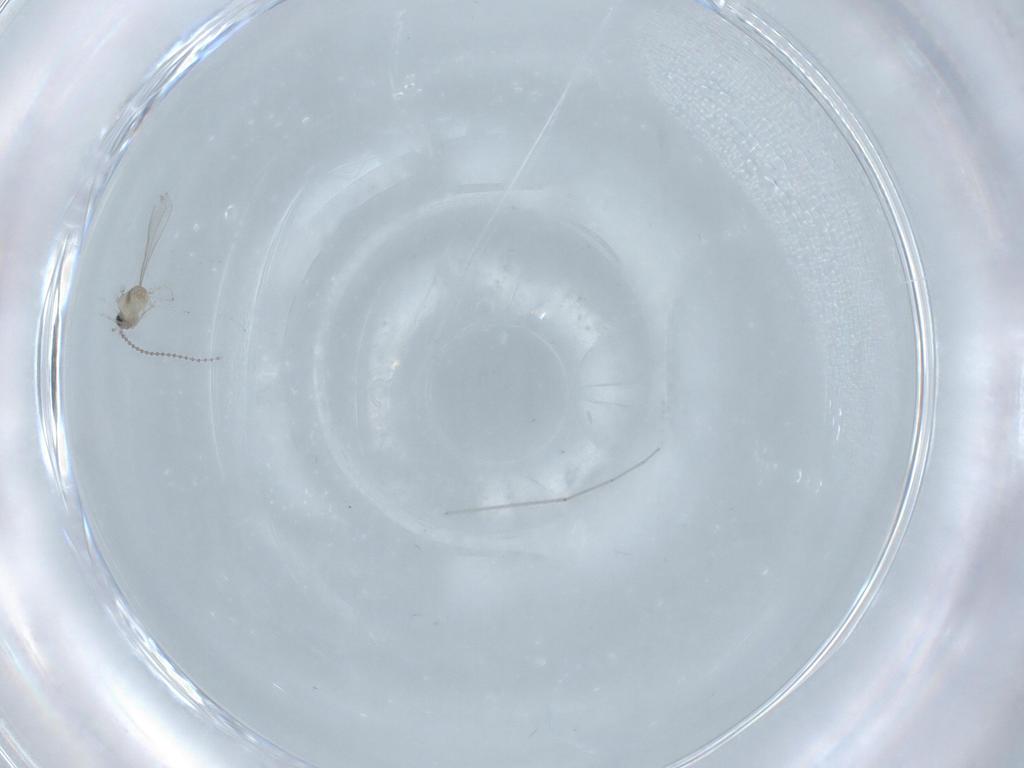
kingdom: Animalia
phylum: Arthropoda
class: Insecta
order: Diptera
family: Cecidomyiidae
